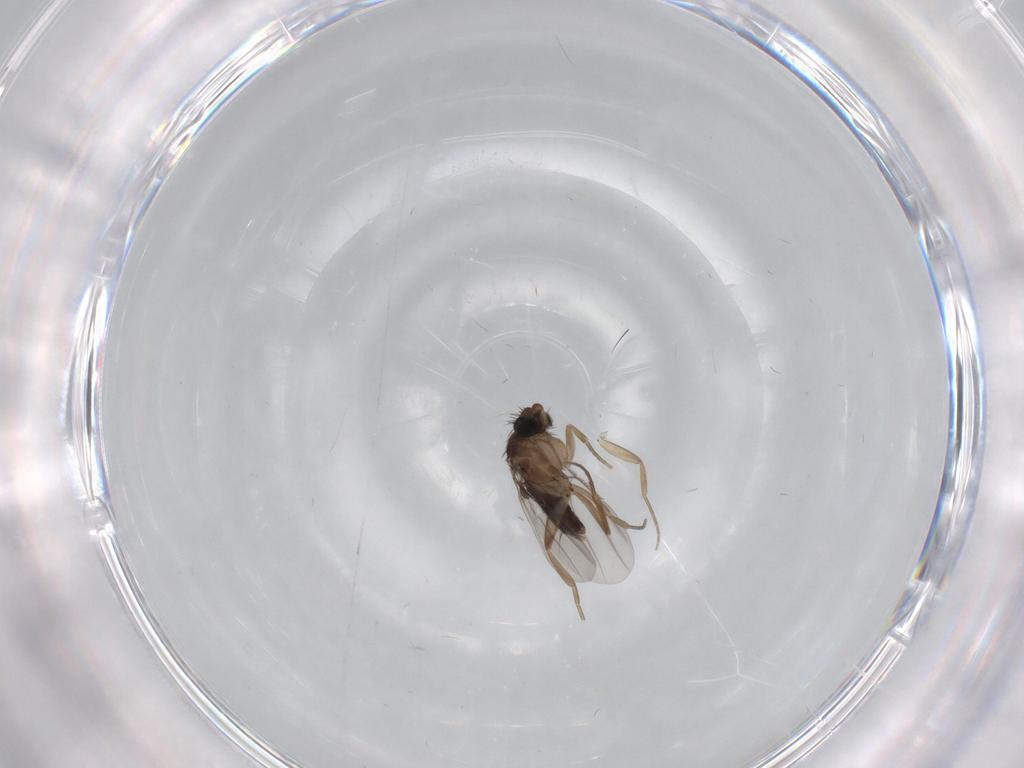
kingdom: Animalia
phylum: Arthropoda
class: Insecta
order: Diptera
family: Phoridae
